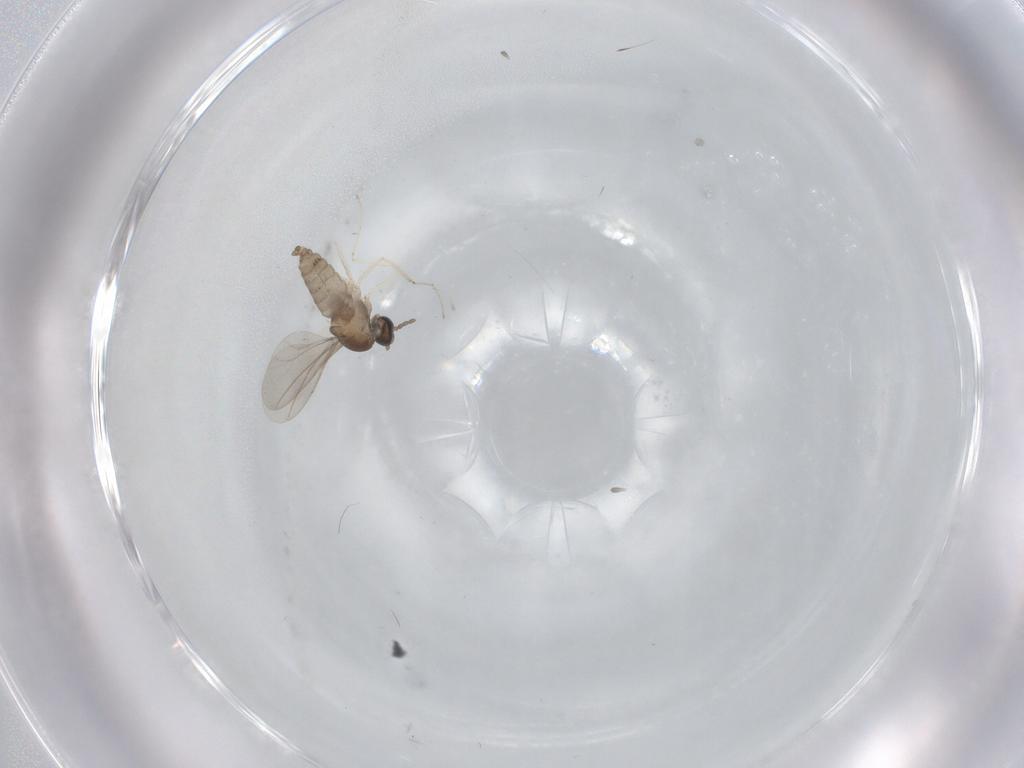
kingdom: Animalia
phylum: Arthropoda
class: Insecta
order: Diptera
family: Cecidomyiidae
